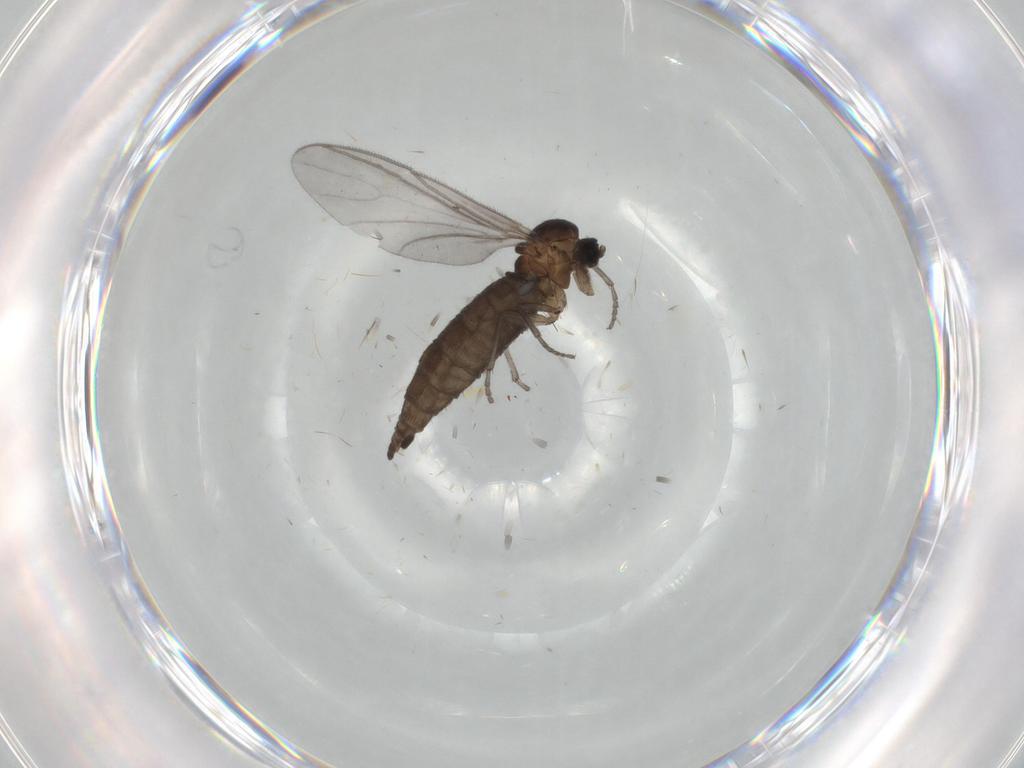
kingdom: Animalia
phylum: Arthropoda
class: Insecta
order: Diptera
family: Sciaridae
